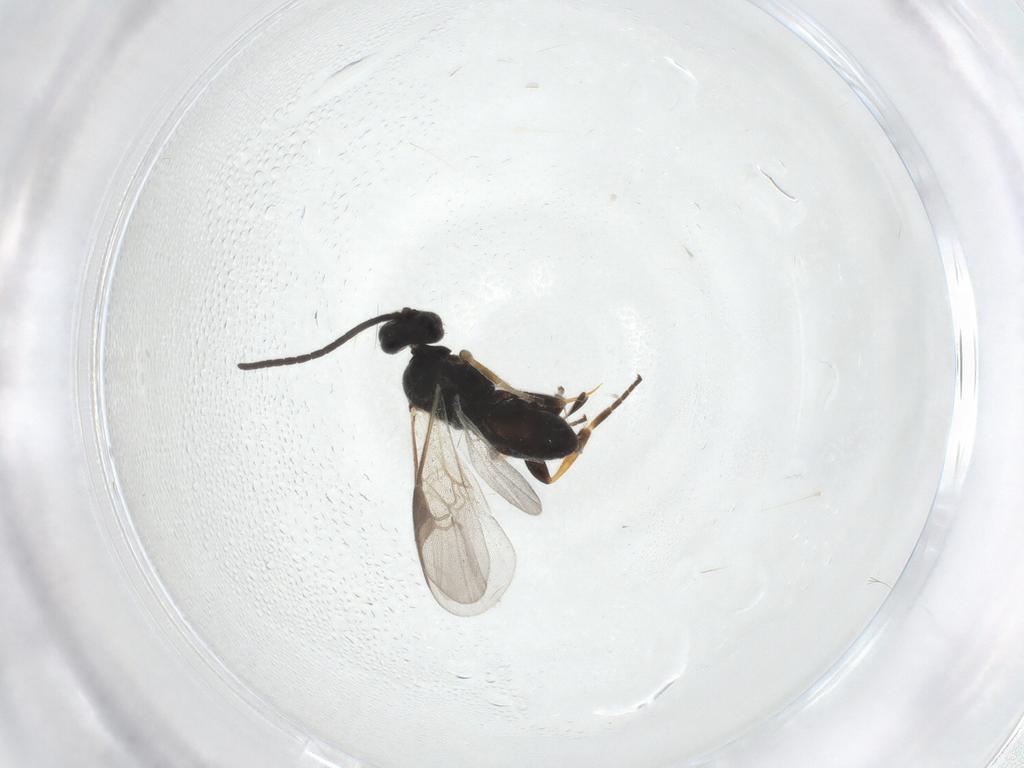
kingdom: Animalia
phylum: Arthropoda
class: Insecta
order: Hymenoptera
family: Braconidae
